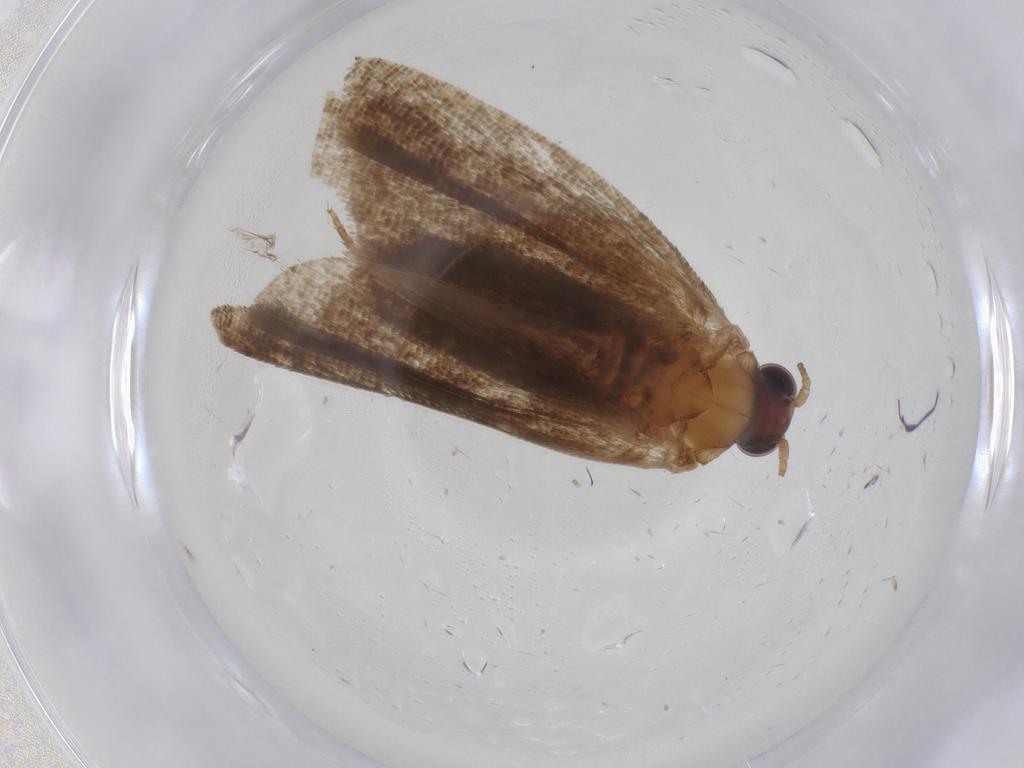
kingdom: Animalia
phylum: Arthropoda
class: Insecta
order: Lepidoptera
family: Tortricidae
